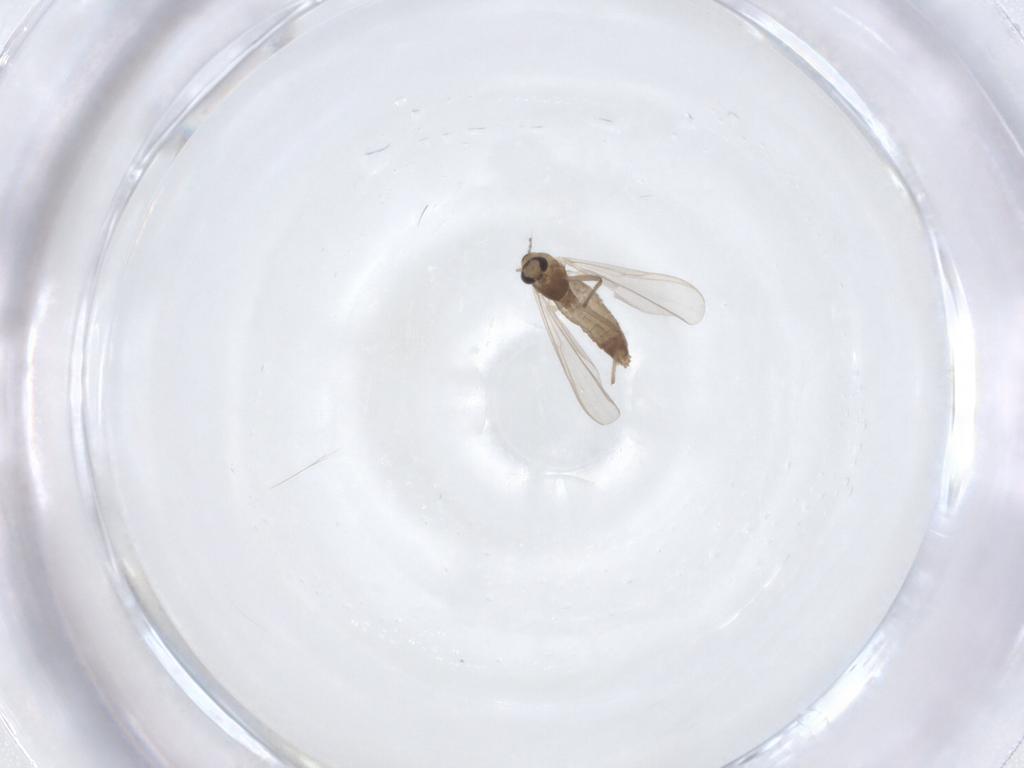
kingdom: Animalia
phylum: Arthropoda
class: Insecta
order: Diptera
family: Chironomidae
